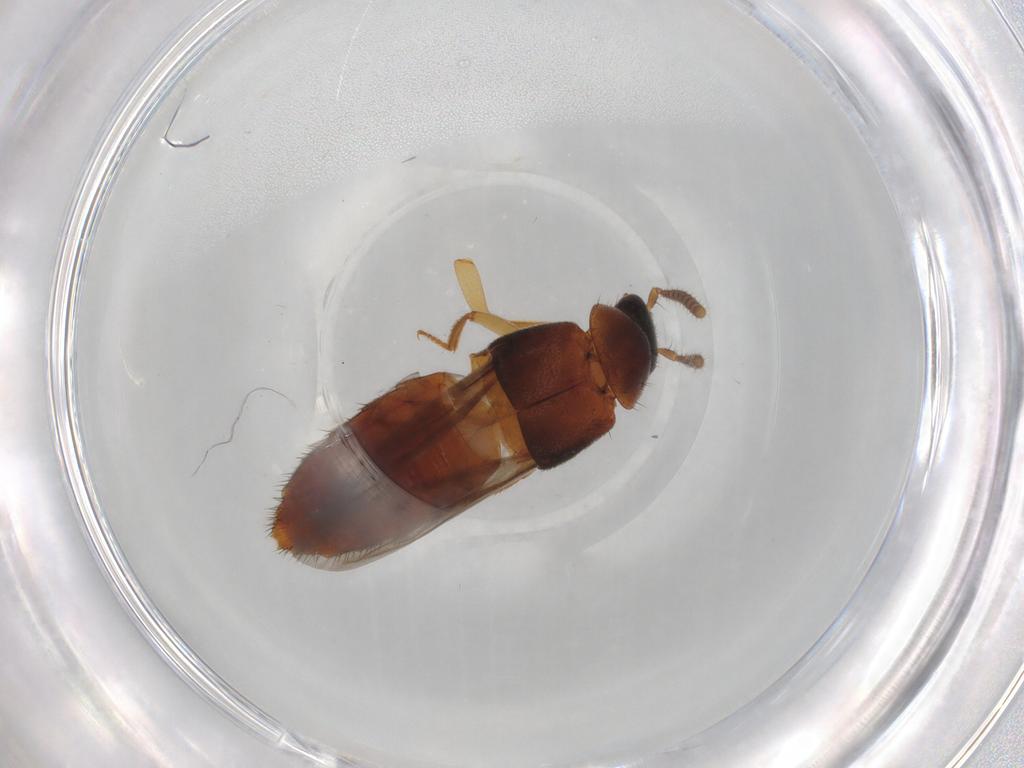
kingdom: Animalia
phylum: Arthropoda
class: Insecta
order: Coleoptera
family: Staphylinidae
